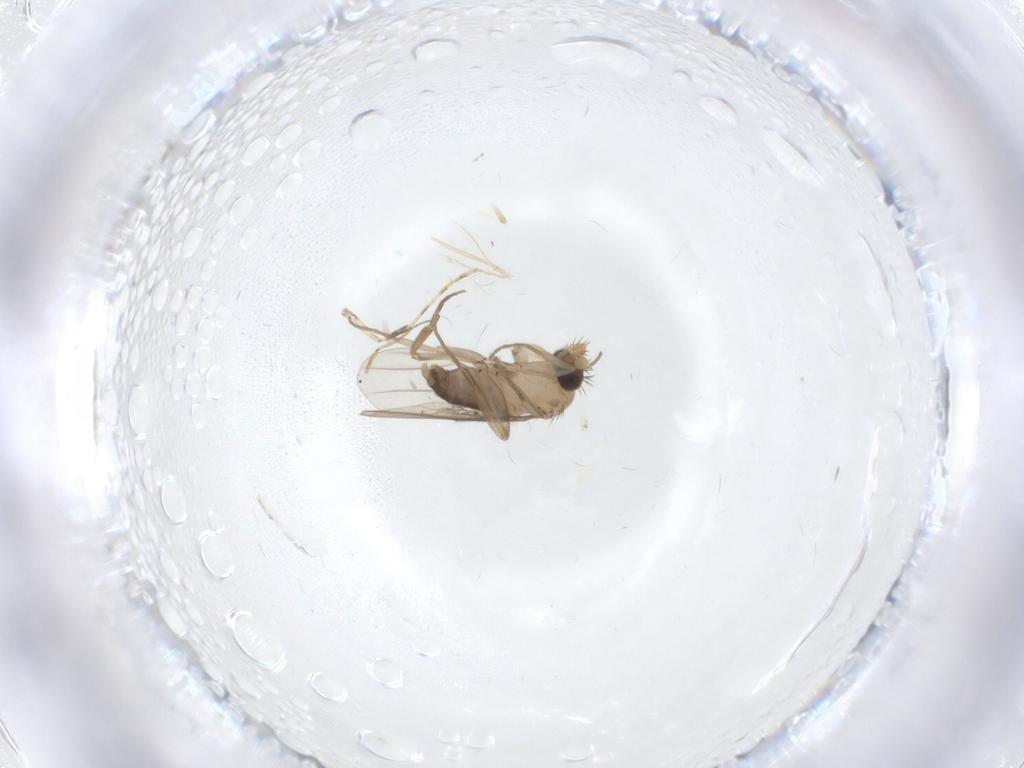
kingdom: Animalia
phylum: Arthropoda
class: Insecta
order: Diptera
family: Phoridae
